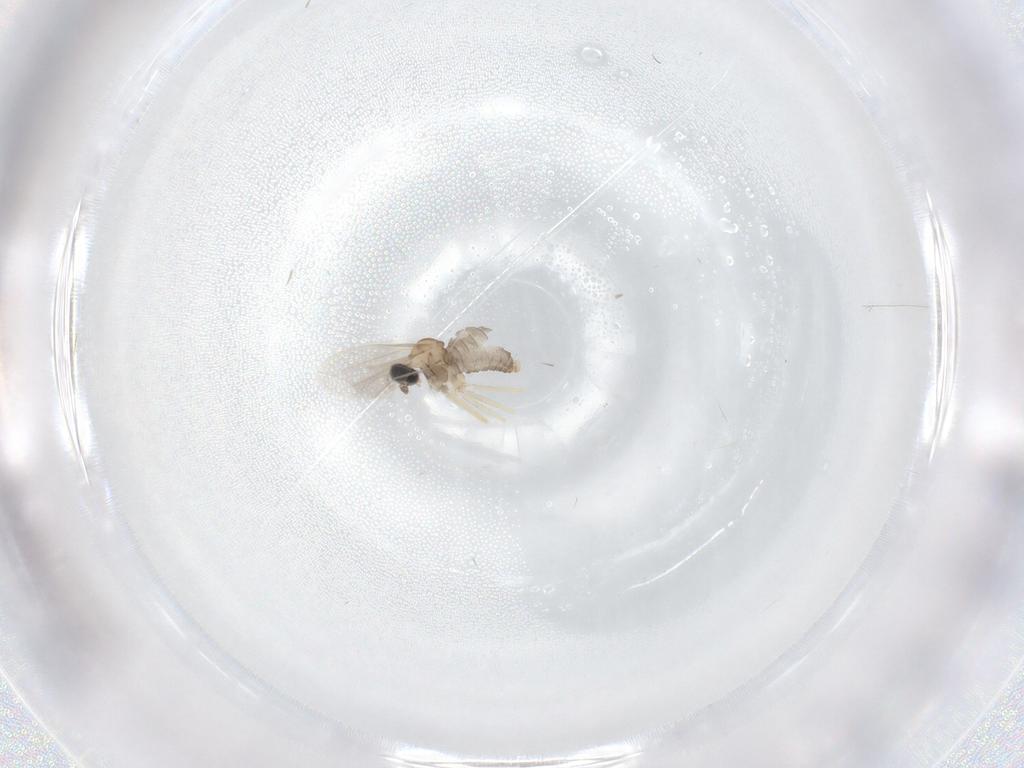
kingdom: Animalia
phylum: Arthropoda
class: Insecta
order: Diptera
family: Cecidomyiidae
